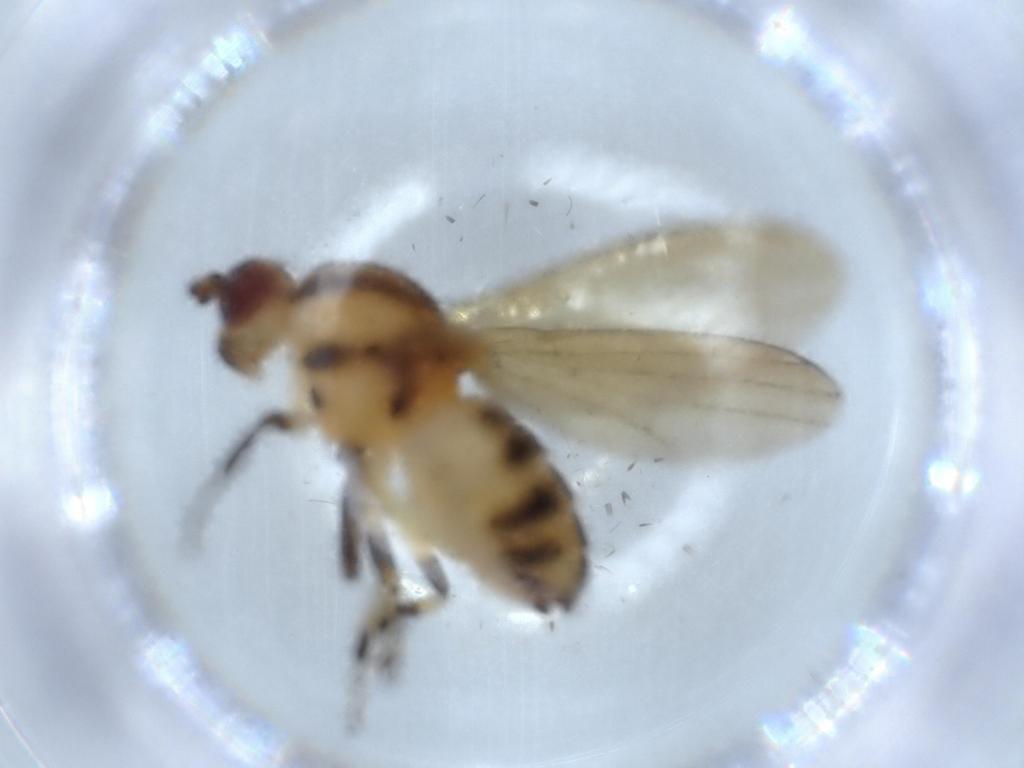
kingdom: Animalia
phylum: Arthropoda
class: Insecta
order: Diptera
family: Lauxaniidae
